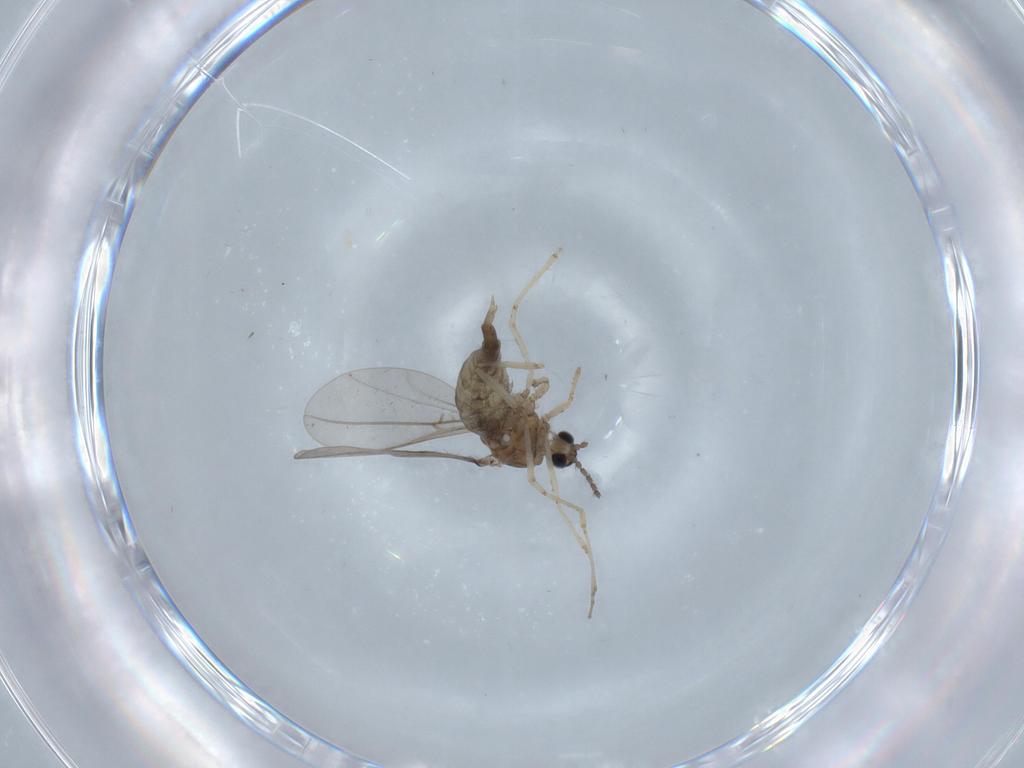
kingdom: Animalia
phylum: Arthropoda
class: Insecta
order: Diptera
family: Cecidomyiidae
